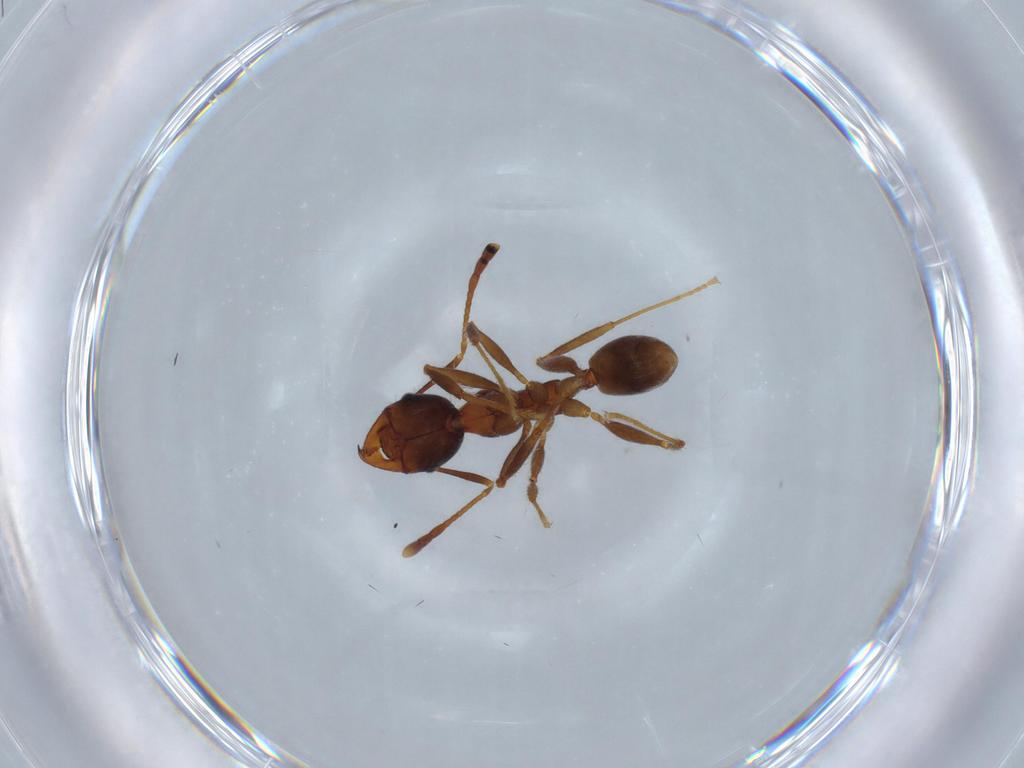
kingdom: Animalia
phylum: Arthropoda
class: Insecta
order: Hymenoptera
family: Formicidae
